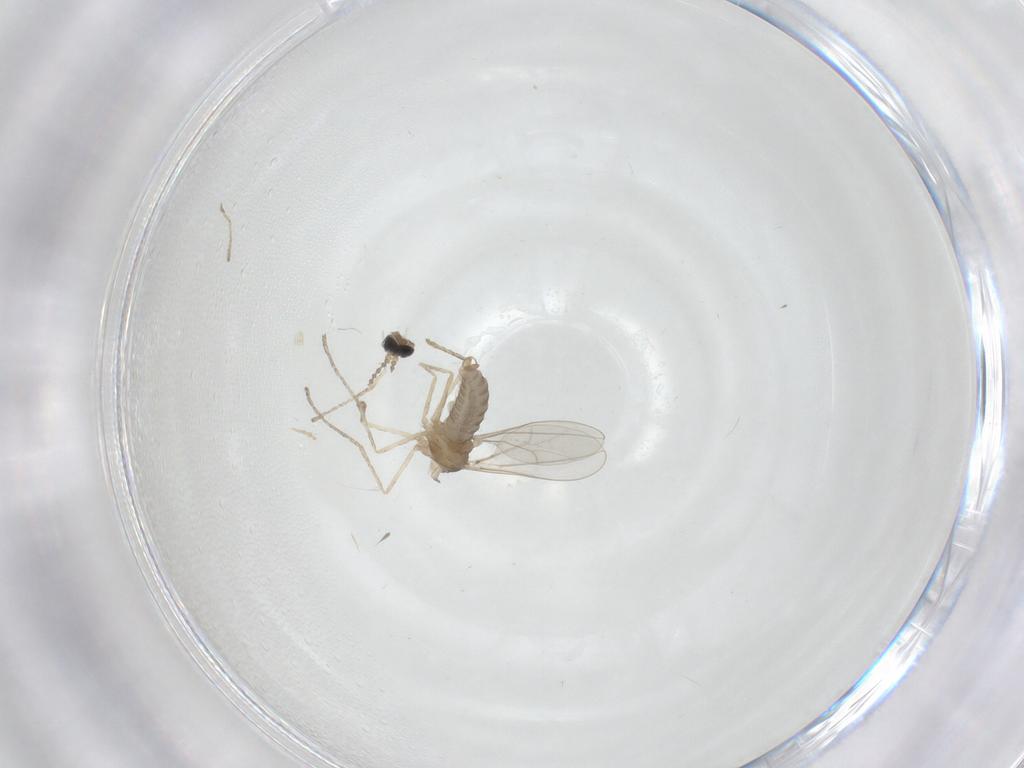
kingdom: Animalia
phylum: Arthropoda
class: Insecta
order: Diptera
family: Cecidomyiidae
